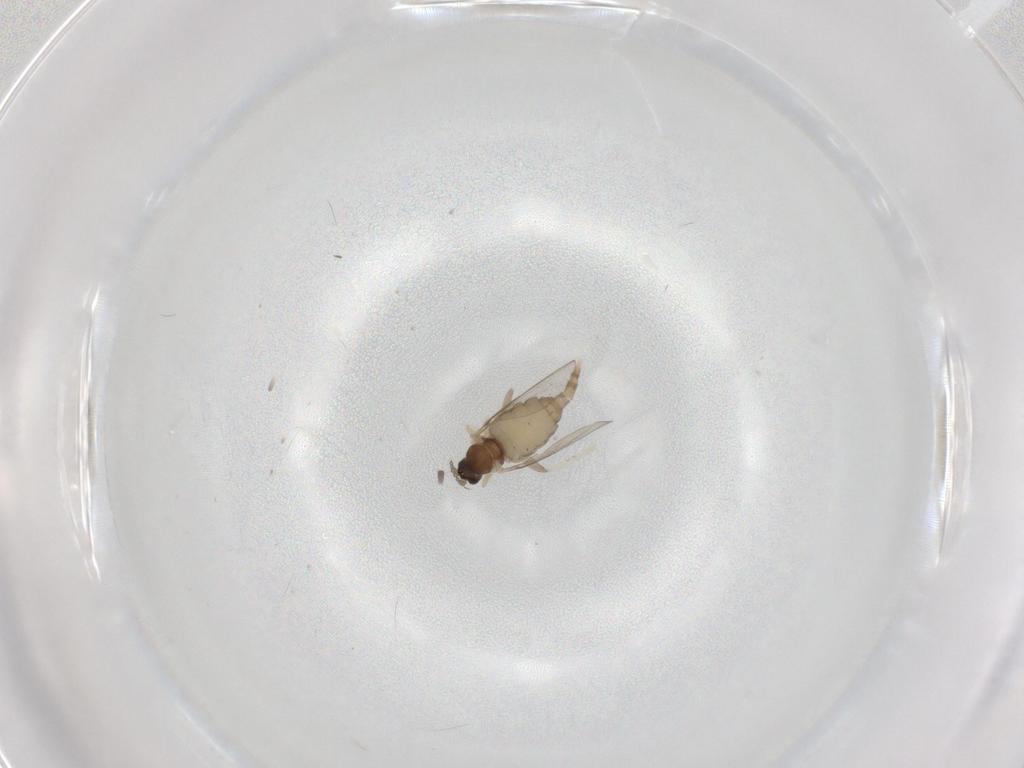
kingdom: Animalia
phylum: Arthropoda
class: Insecta
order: Diptera
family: Cecidomyiidae
